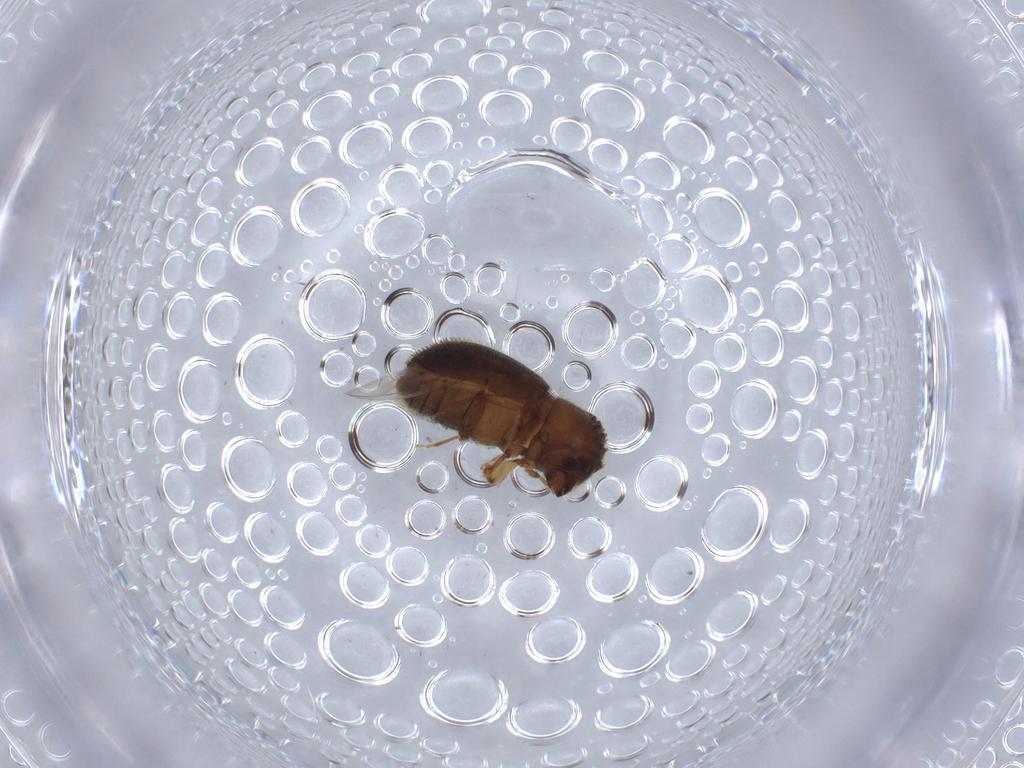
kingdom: Animalia
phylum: Arthropoda
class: Insecta
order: Coleoptera
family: Curculionidae
